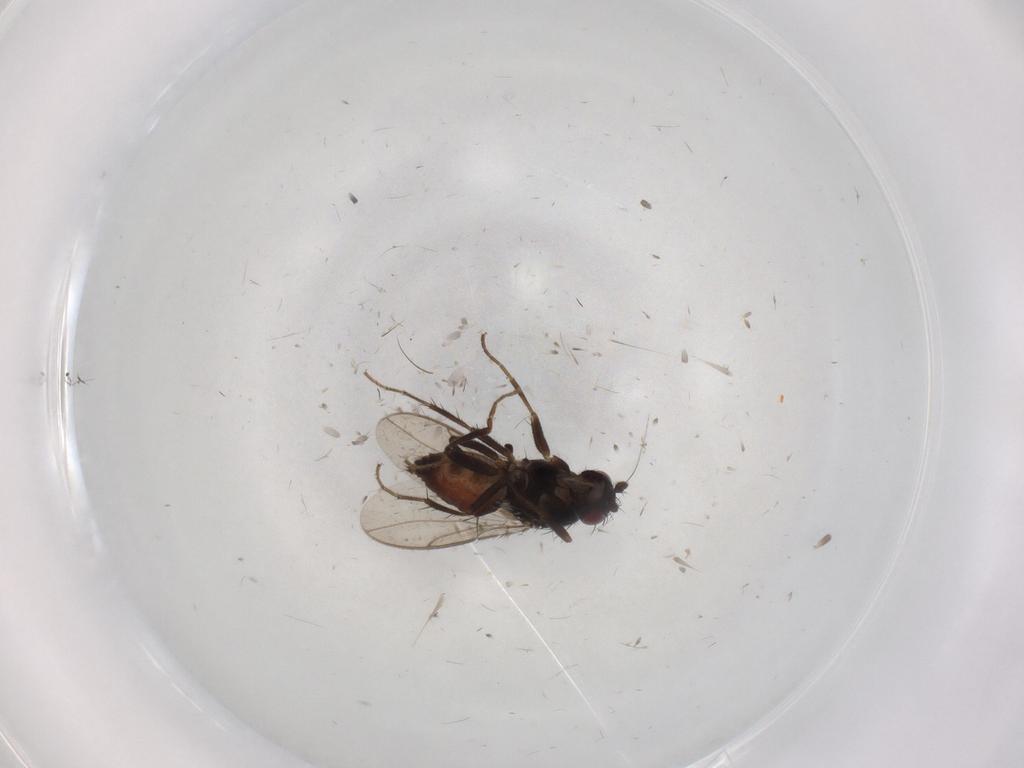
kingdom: Animalia
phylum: Arthropoda
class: Insecta
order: Diptera
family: Sphaeroceridae
